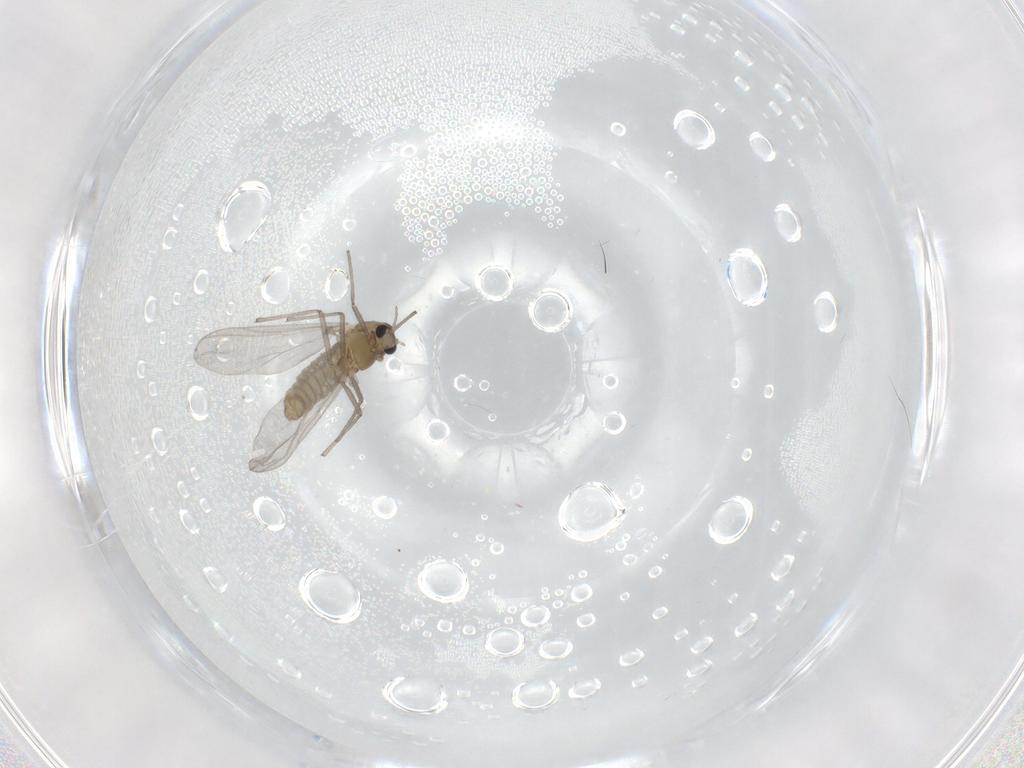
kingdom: Animalia
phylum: Arthropoda
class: Insecta
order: Diptera
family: Chironomidae
